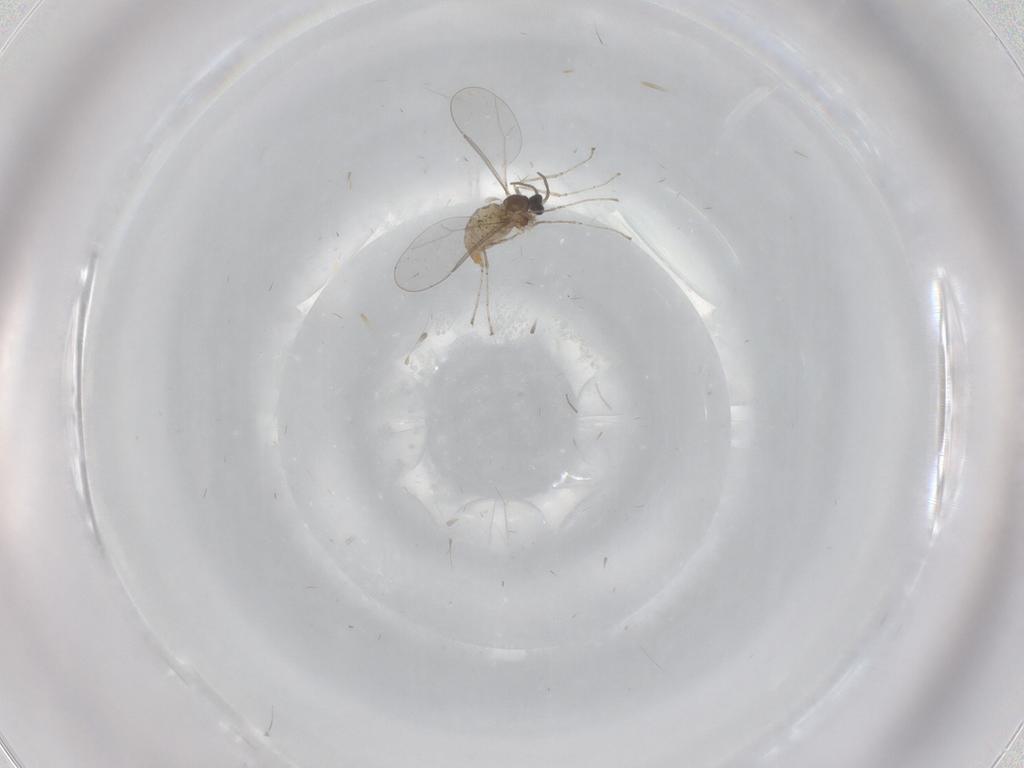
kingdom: Animalia
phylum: Arthropoda
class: Insecta
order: Diptera
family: Cecidomyiidae
